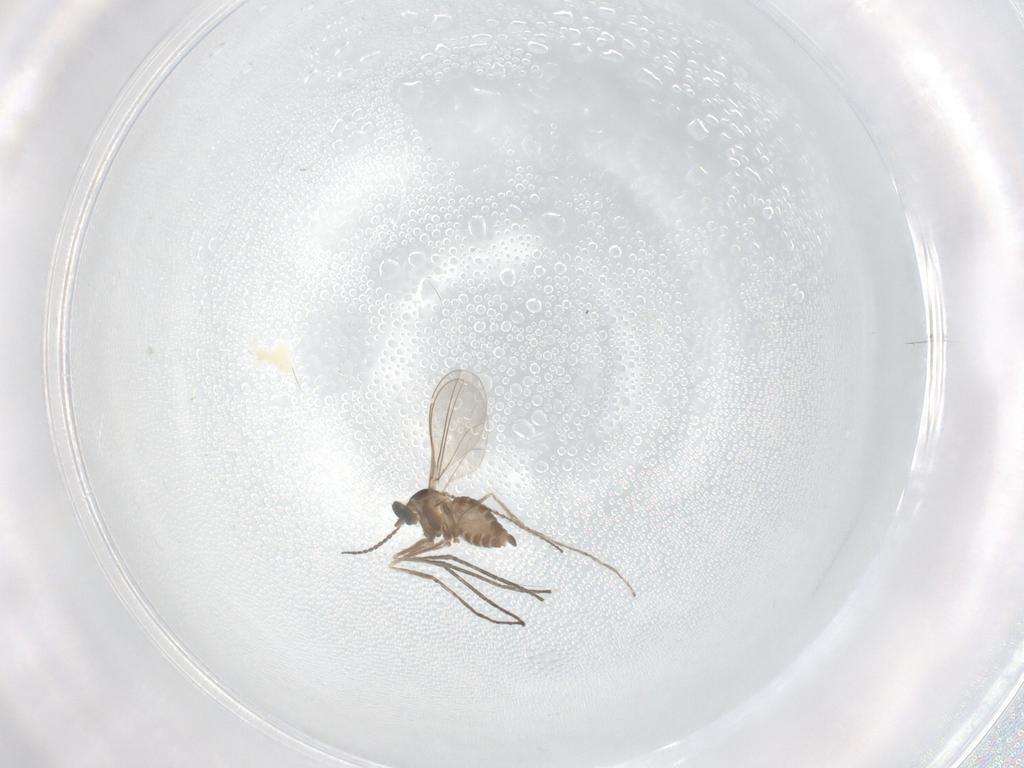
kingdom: Animalia
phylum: Arthropoda
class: Insecta
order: Diptera
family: Cecidomyiidae
